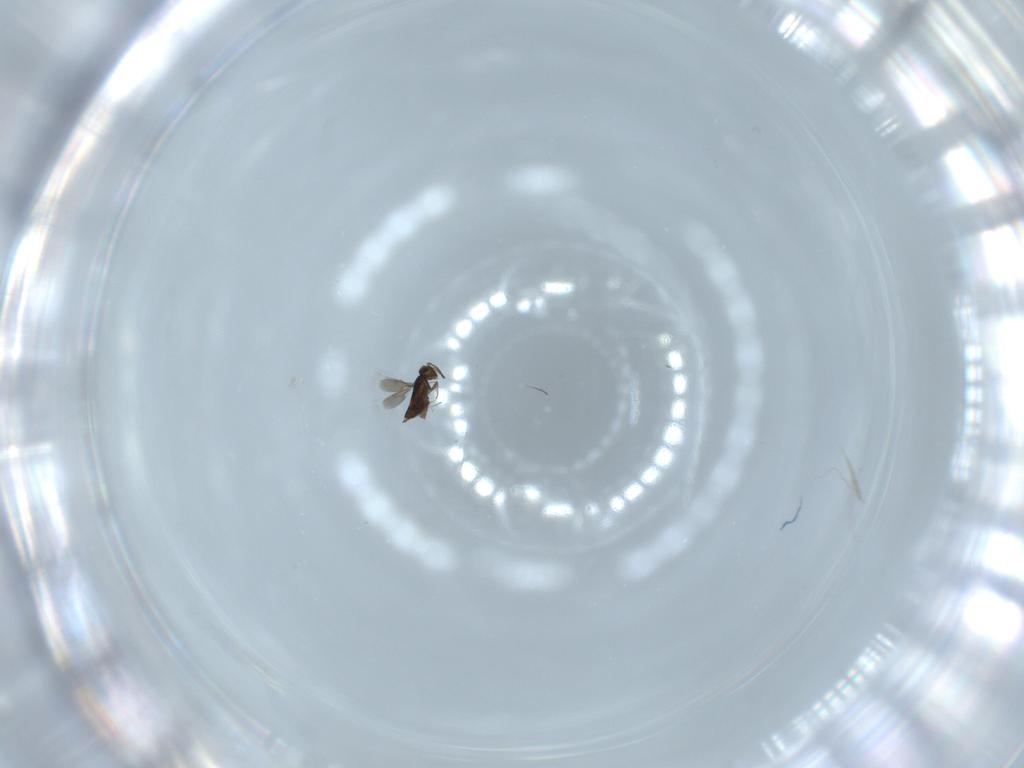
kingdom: Animalia
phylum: Arthropoda
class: Insecta
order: Hymenoptera
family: Signiphoridae
